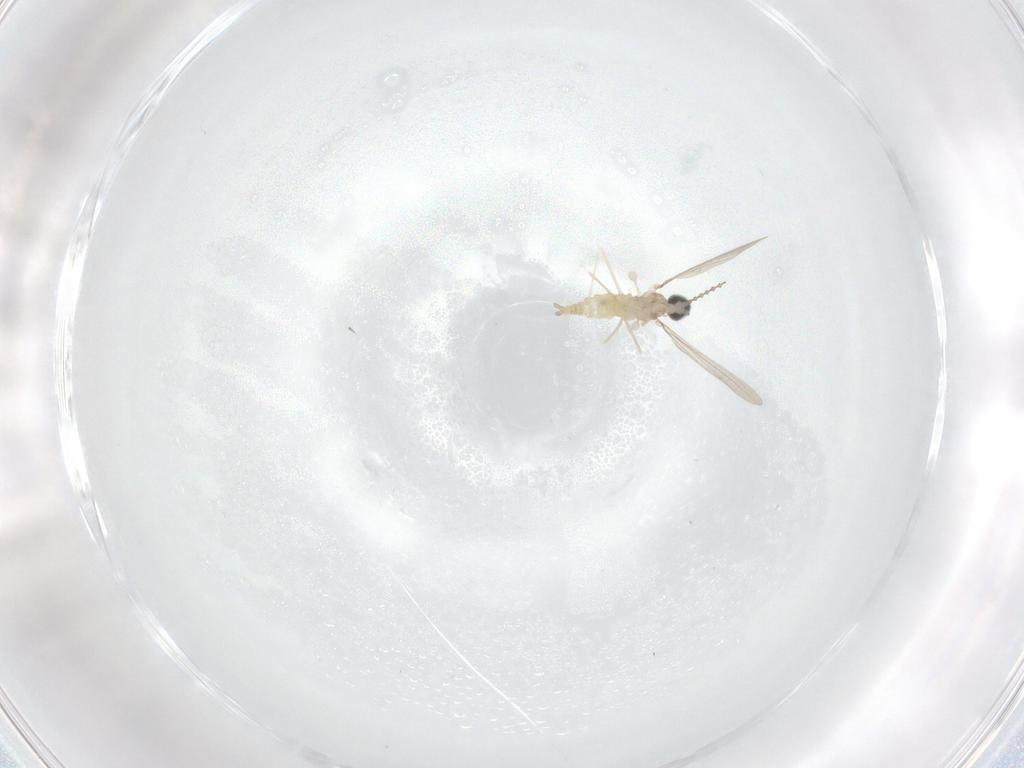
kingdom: Animalia
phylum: Arthropoda
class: Insecta
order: Diptera
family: Cecidomyiidae
